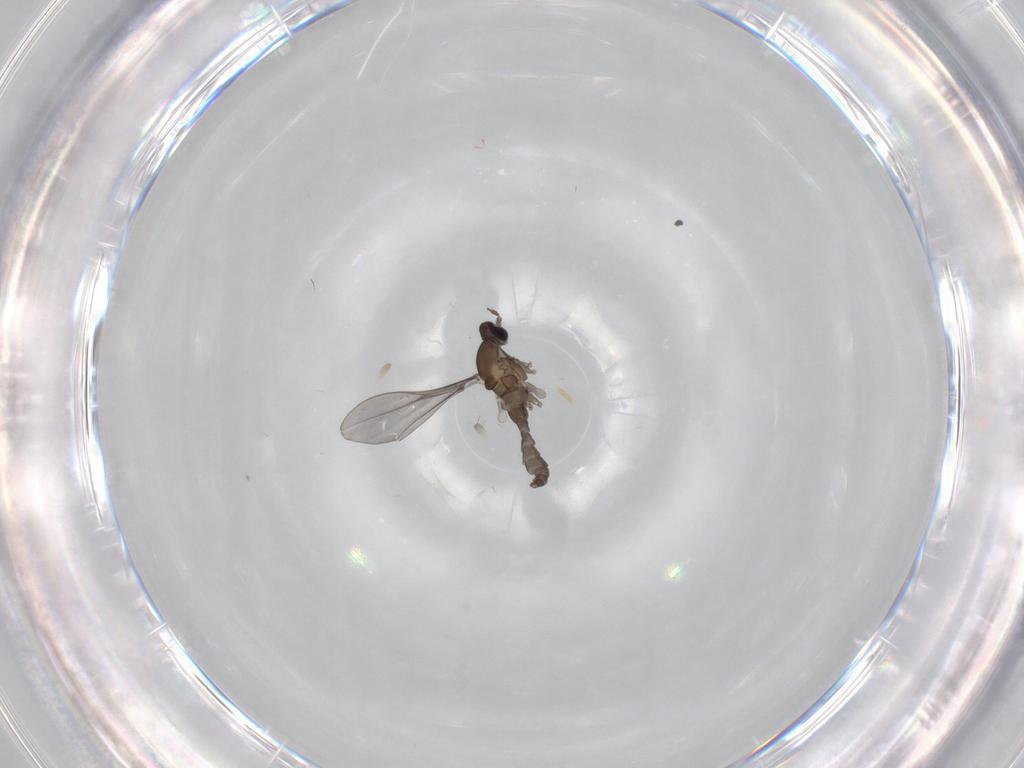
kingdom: Animalia
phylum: Arthropoda
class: Insecta
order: Diptera
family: Cecidomyiidae
